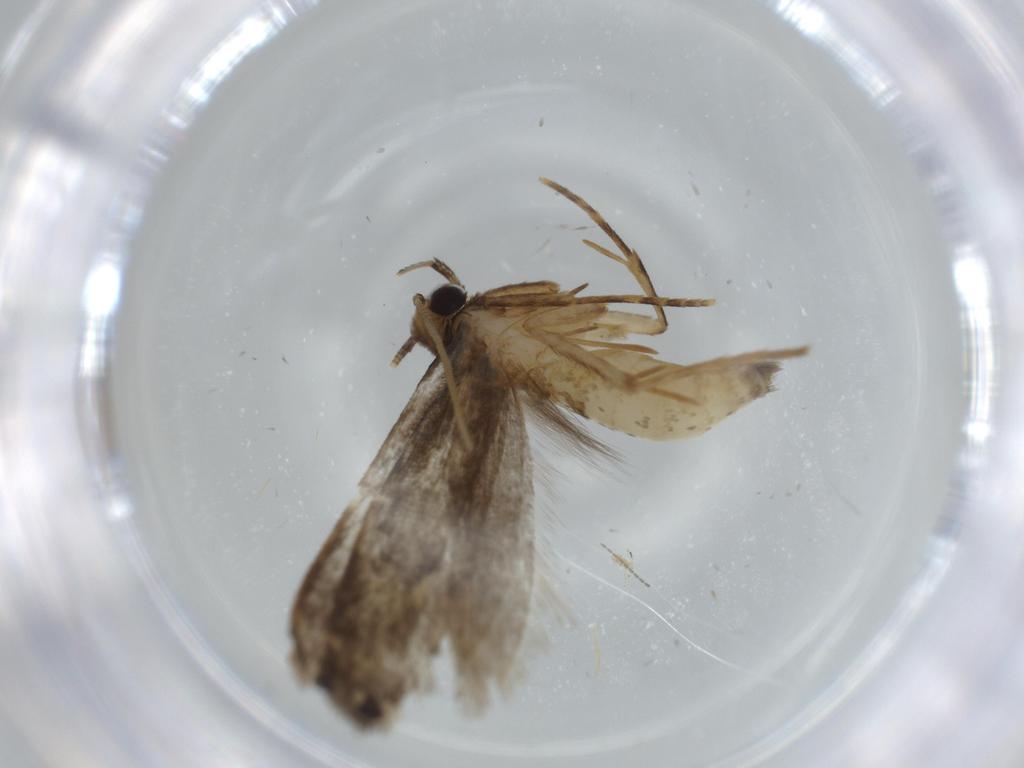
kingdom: Animalia
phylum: Arthropoda
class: Insecta
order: Lepidoptera
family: Tineidae
